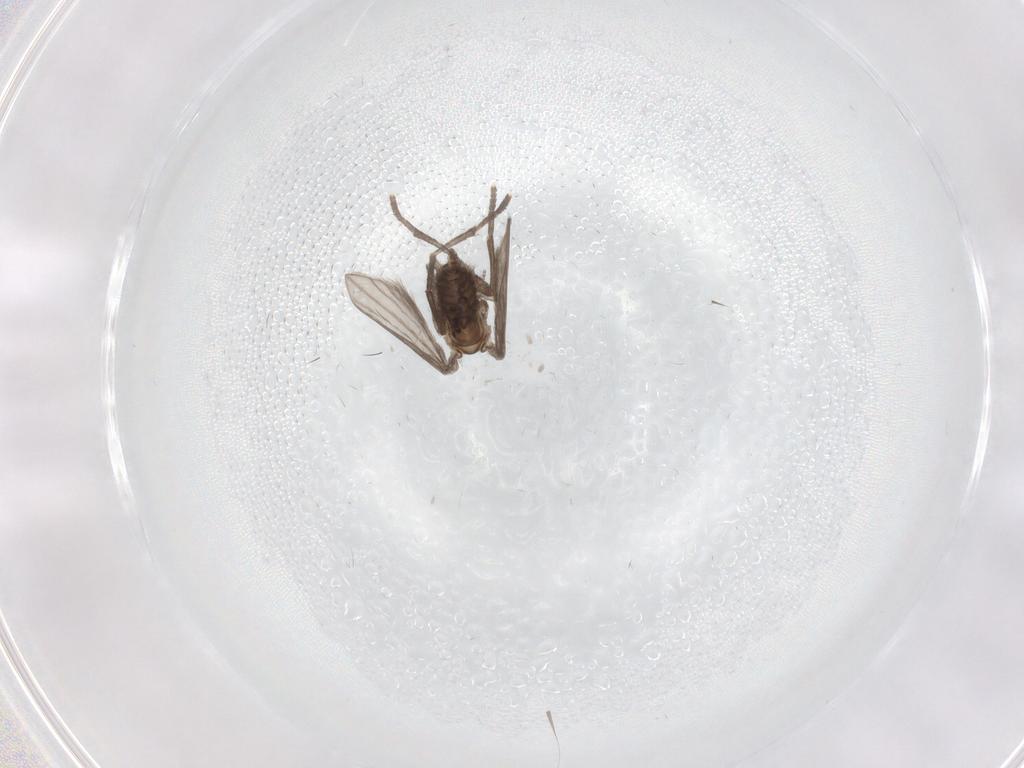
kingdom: Animalia
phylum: Arthropoda
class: Insecta
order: Diptera
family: Psychodidae
